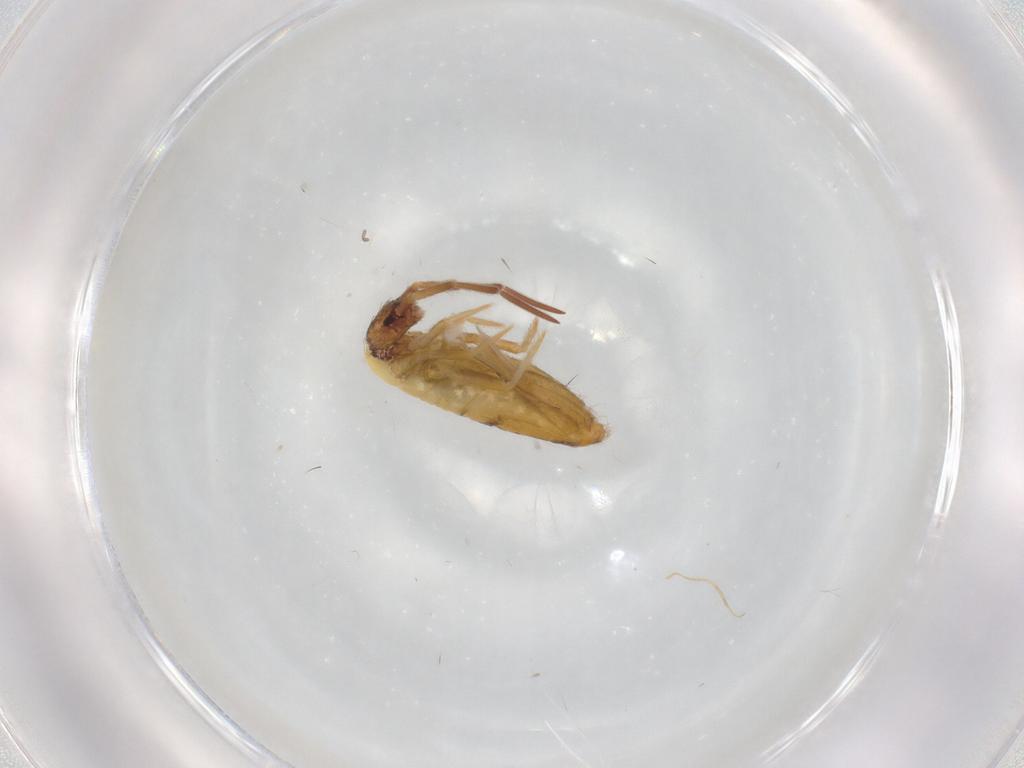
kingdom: Animalia
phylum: Arthropoda
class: Collembola
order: Entomobryomorpha
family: Entomobryidae
